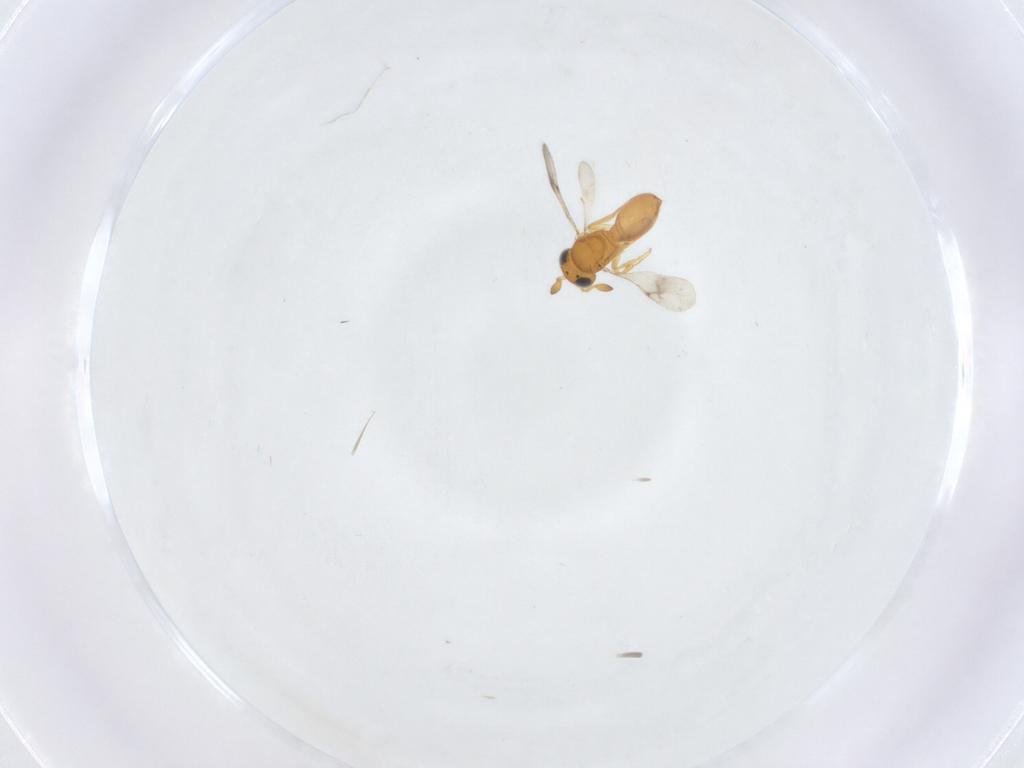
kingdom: Animalia
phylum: Arthropoda
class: Insecta
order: Hymenoptera
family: Scelionidae
